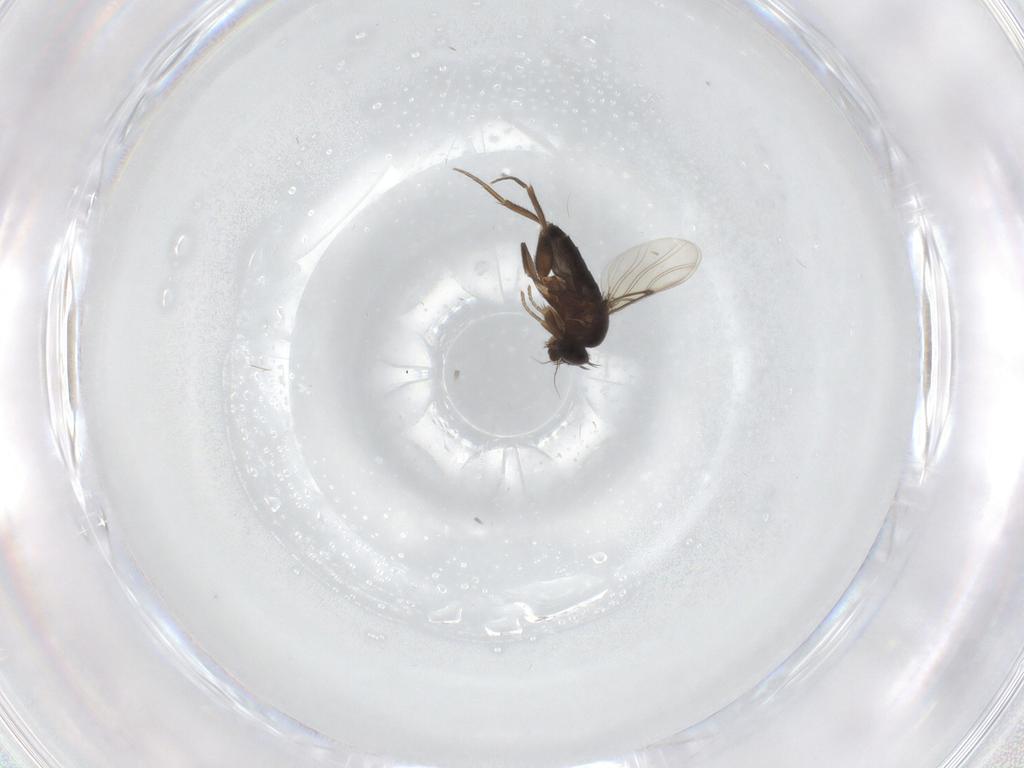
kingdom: Animalia
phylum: Arthropoda
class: Insecta
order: Diptera
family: Phoridae
